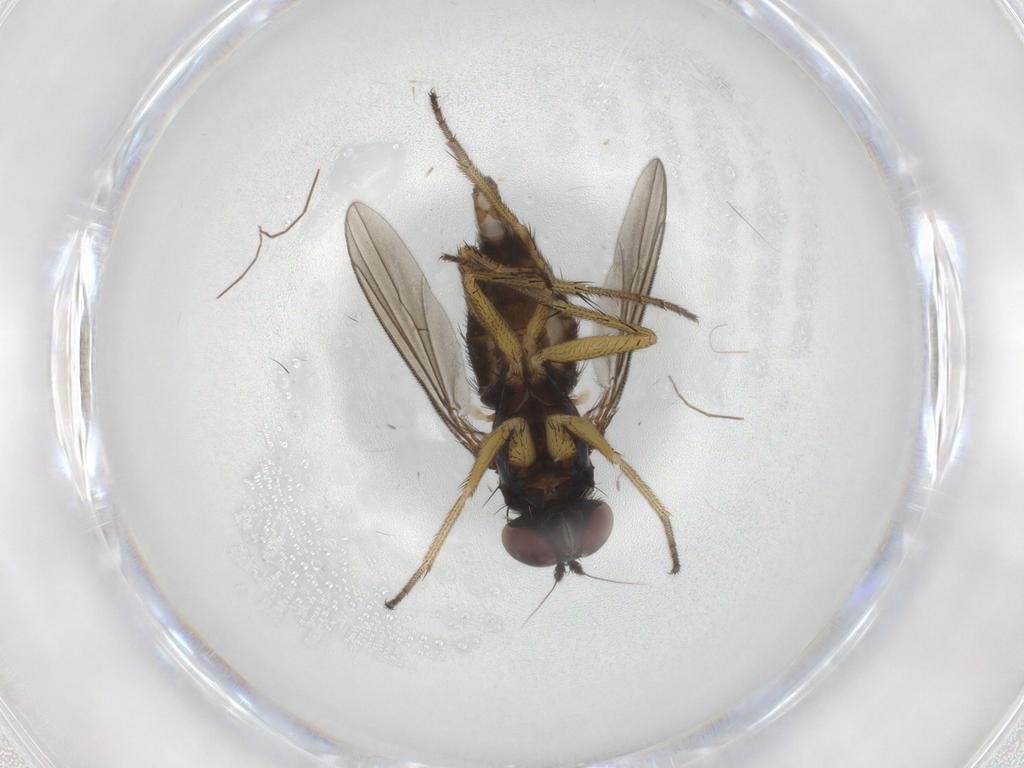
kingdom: Animalia
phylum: Arthropoda
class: Insecta
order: Diptera
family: Dolichopodidae
